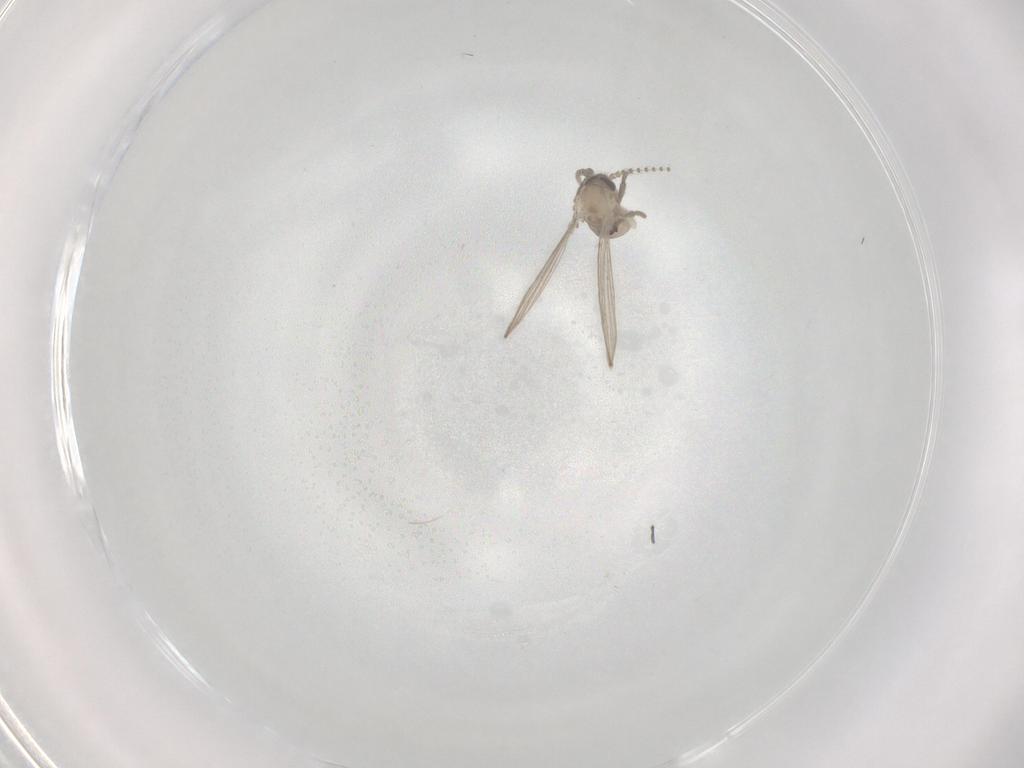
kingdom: Animalia
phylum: Arthropoda
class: Insecta
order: Diptera
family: Psychodidae
